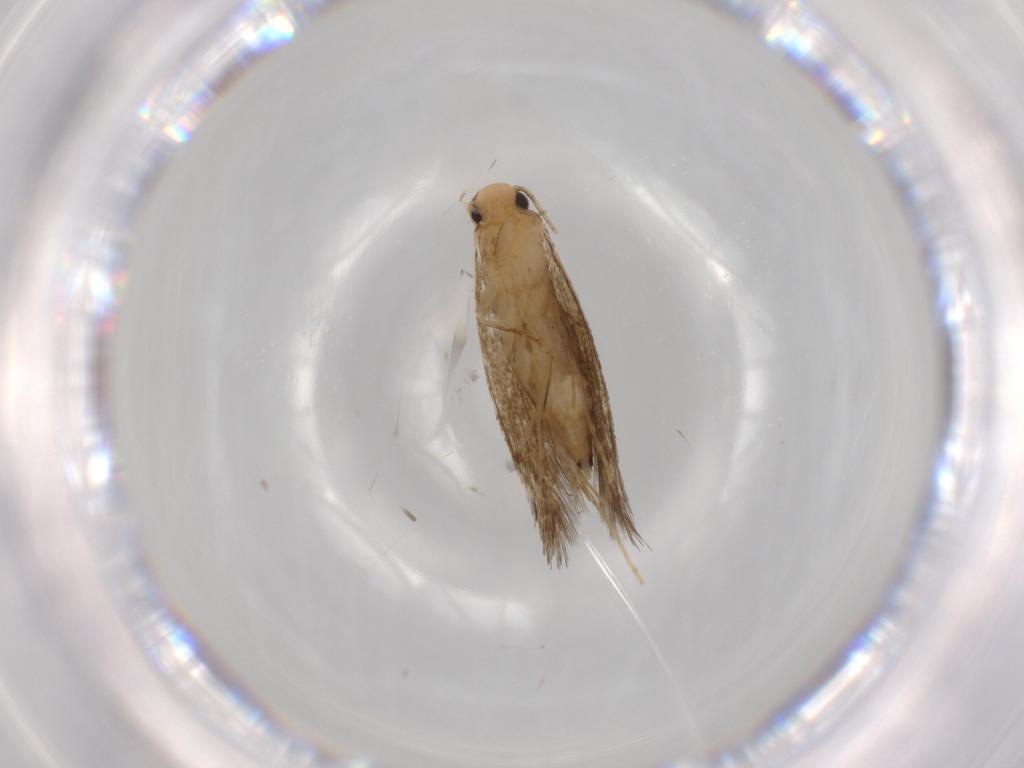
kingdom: Animalia
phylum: Arthropoda
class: Insecta
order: Lepidoptera
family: Tineidae
